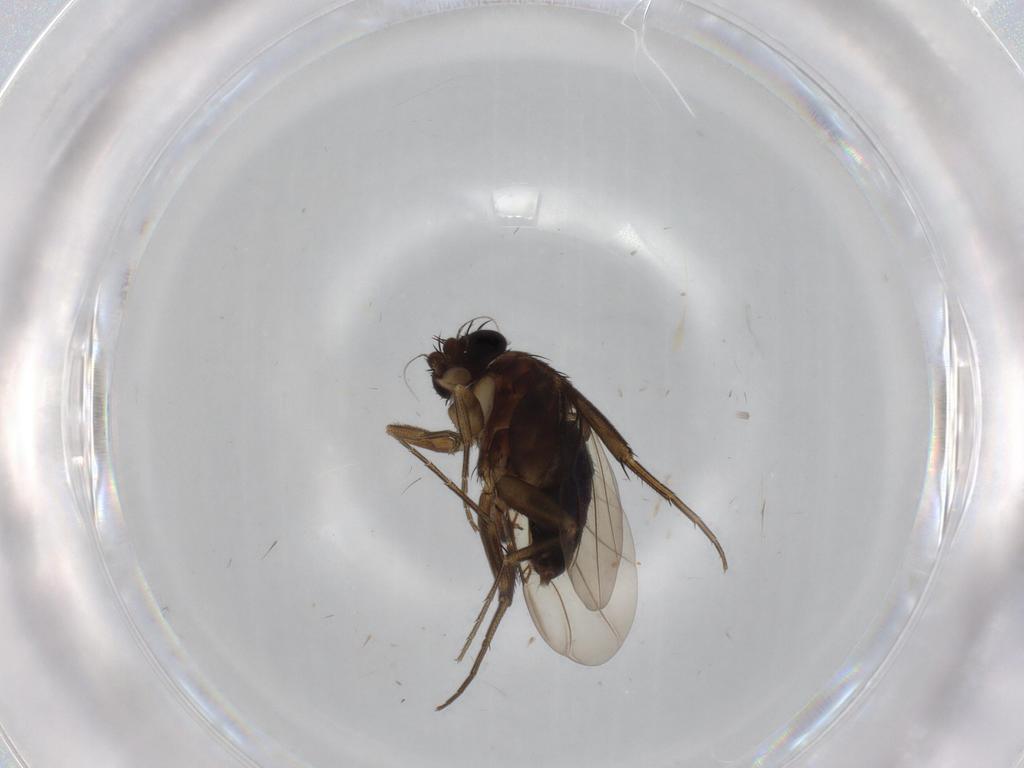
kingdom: Animalia
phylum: Arthropoda
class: Insecta
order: Diptera
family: Phoridae
